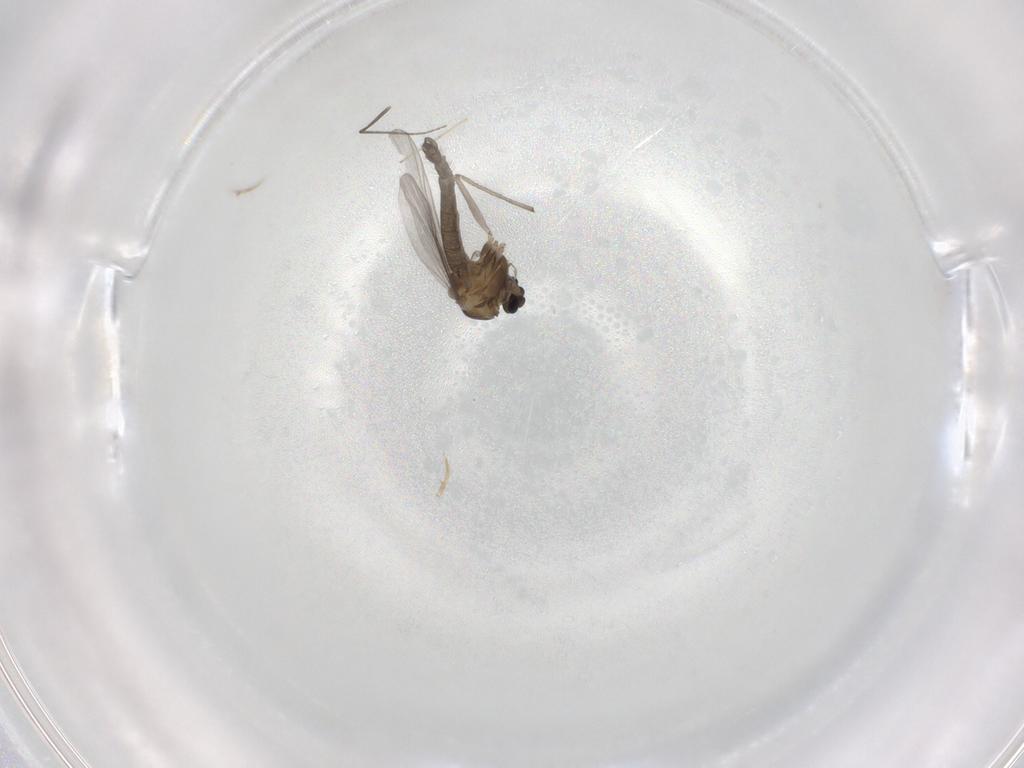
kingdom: Animalia
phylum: Arthropoda
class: Insecta
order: Diptera
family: Chironomidae
